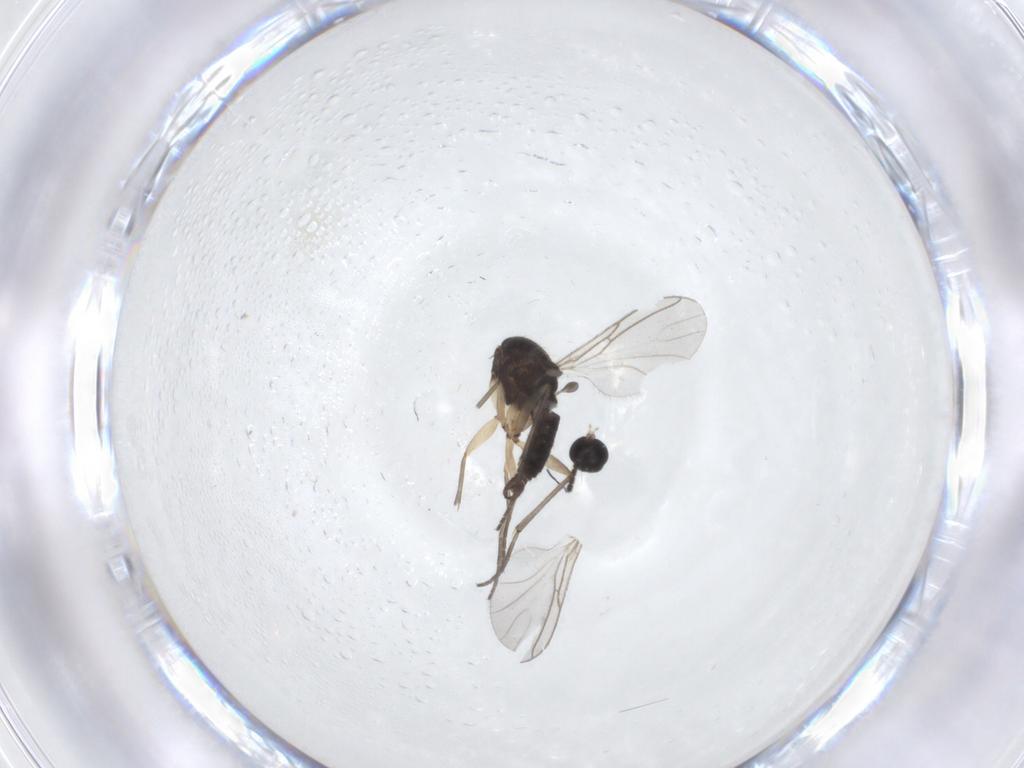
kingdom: Animalia
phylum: Arthropoda
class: Insecta
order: Diptera
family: Sciaridae
